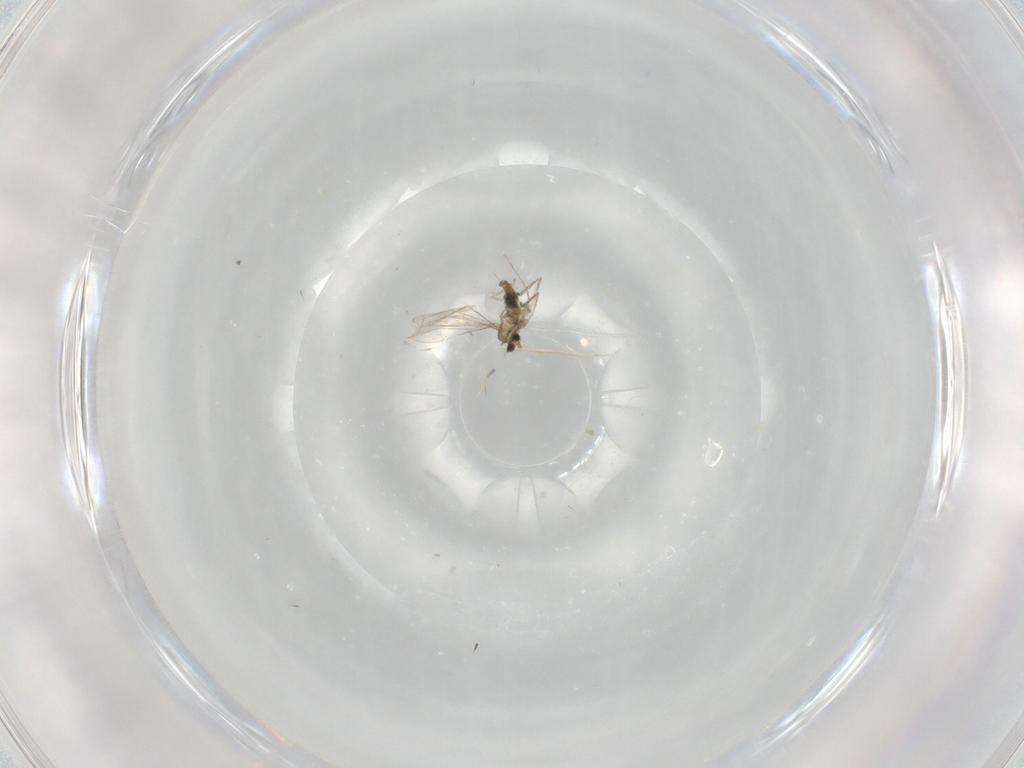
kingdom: Animalia
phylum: Arthropoda
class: Insecta
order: Diptera
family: Cecidomyiidae
